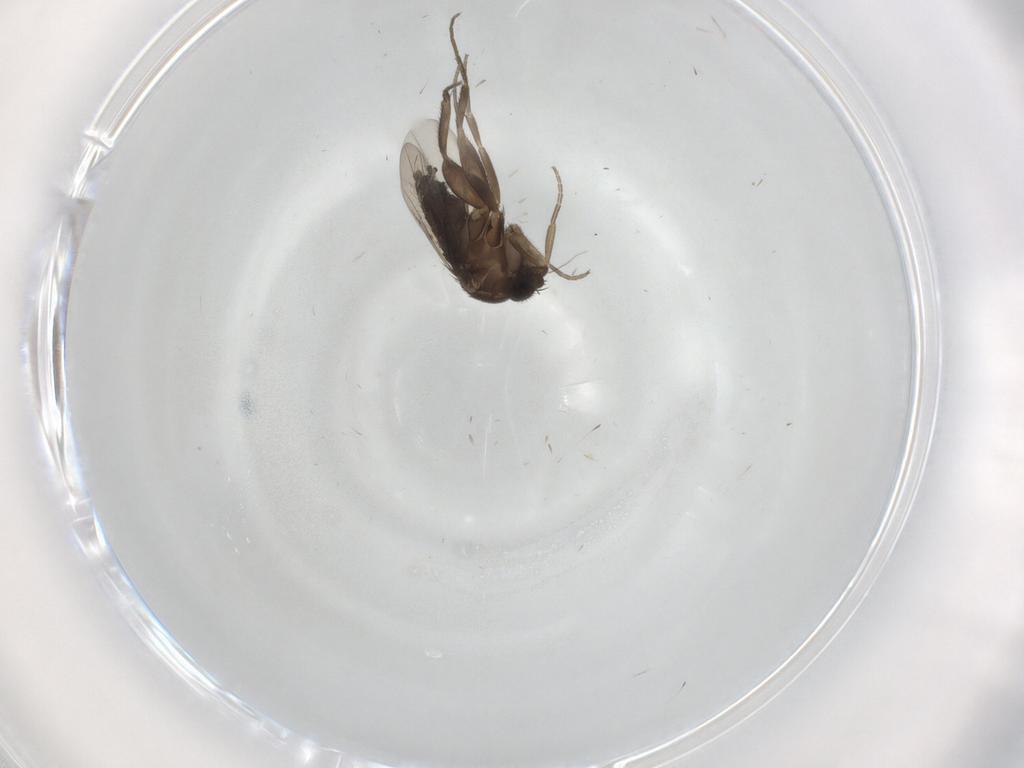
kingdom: Animalia
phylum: Arthropoda
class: Insecta
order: Diptera
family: Phoridae
